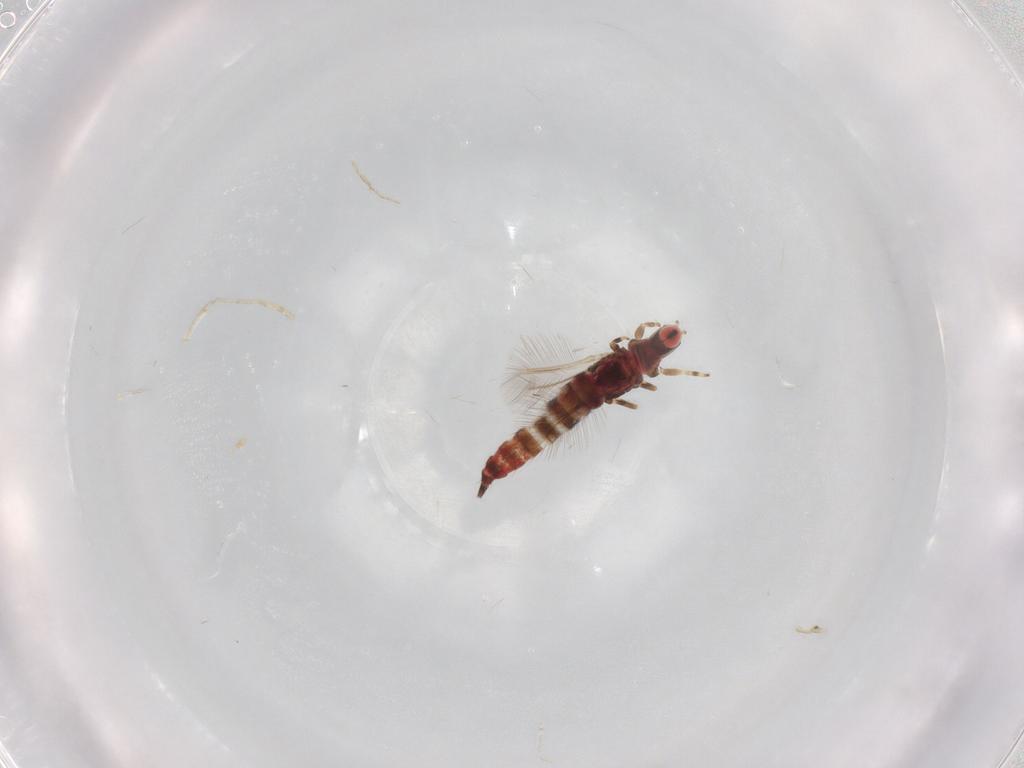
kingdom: Animalia
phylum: Arthropoda
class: Insecta
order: Thysanoptera
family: Phlaeothripidae
